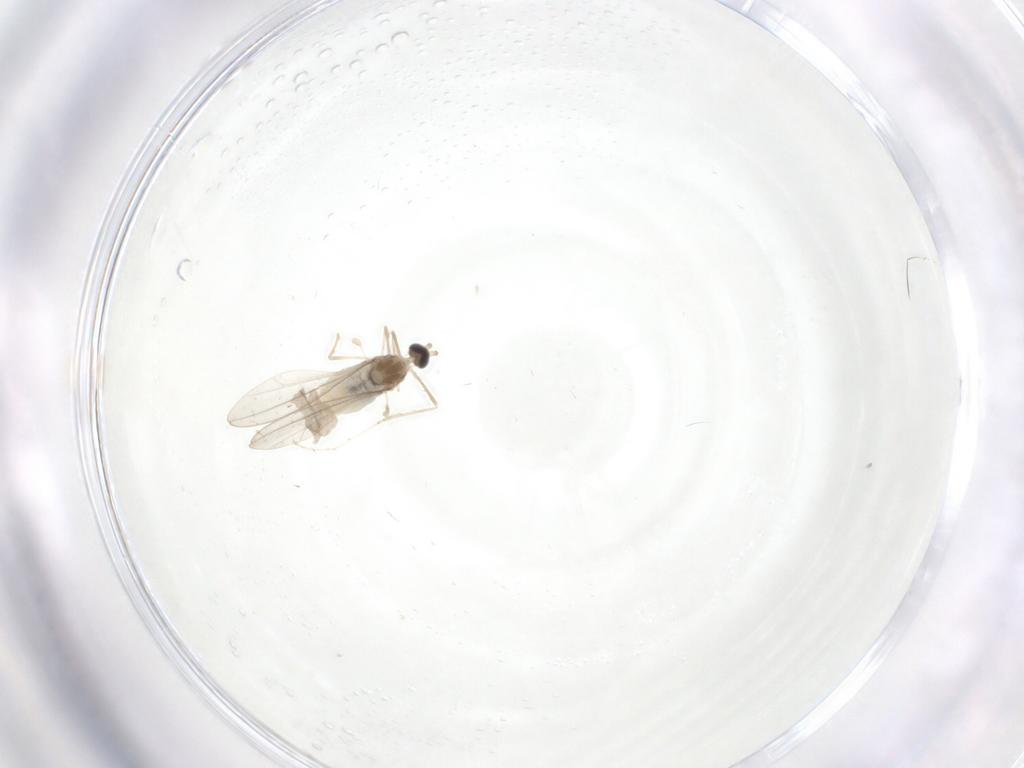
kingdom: Animalia
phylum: Arthropoda
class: Insecta
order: Diptera
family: Cecidomyiidae
